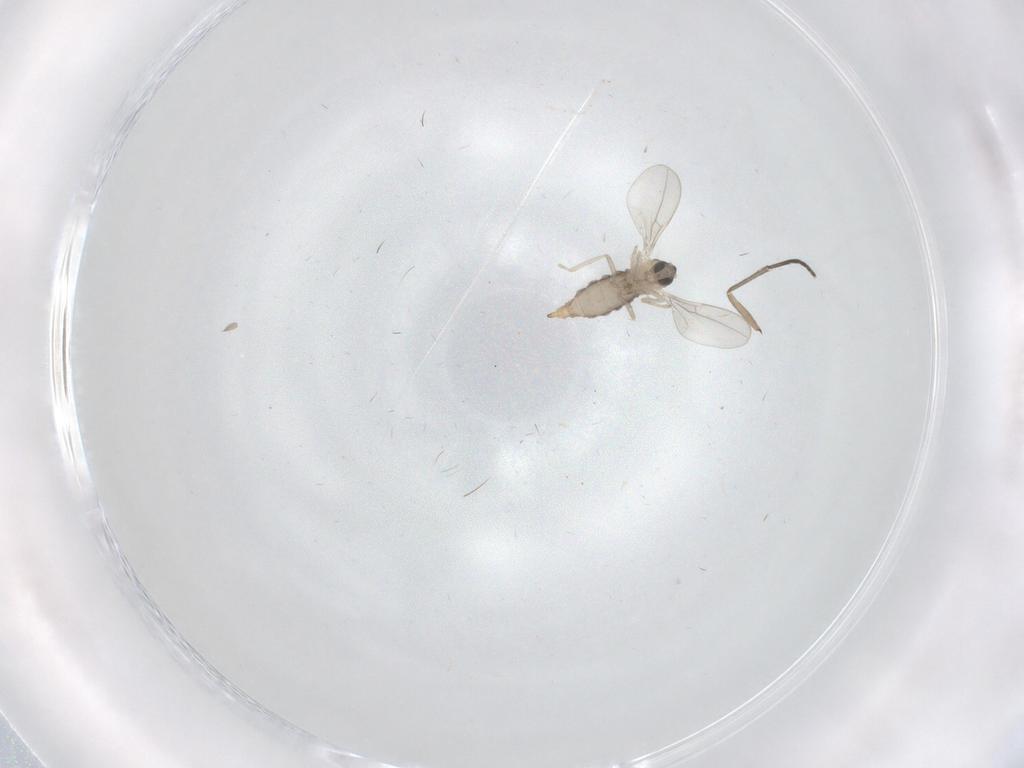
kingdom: Animalia
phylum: Arthropoda
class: Insecta
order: Diptera
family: Cecidomyiidae
